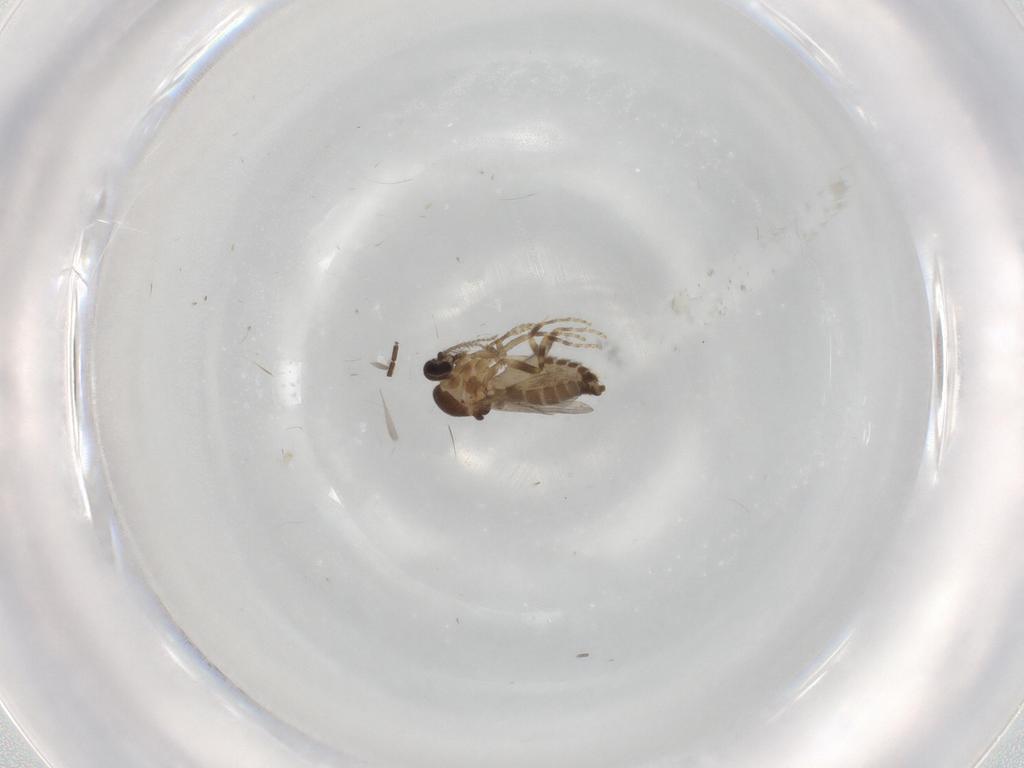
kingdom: Animalia
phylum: Arthropoda
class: Insecta
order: Diptera
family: Ceratopogonidae
